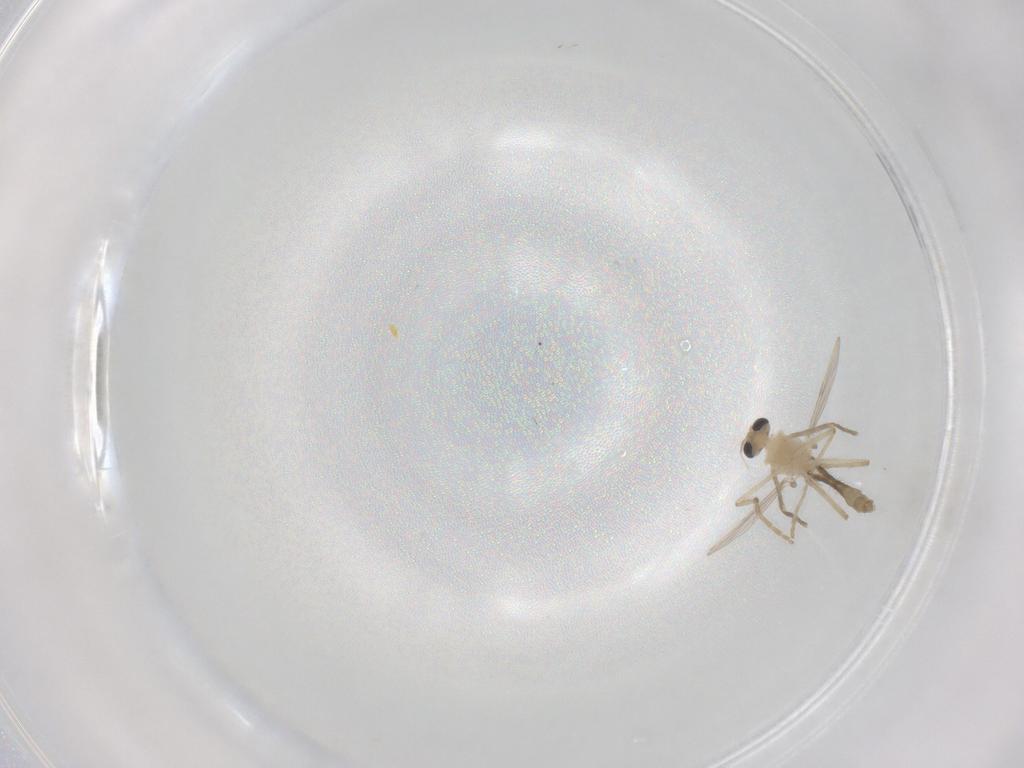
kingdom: Animalia
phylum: Arthropoda
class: Insecta
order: Diptera
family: Chironomidae
